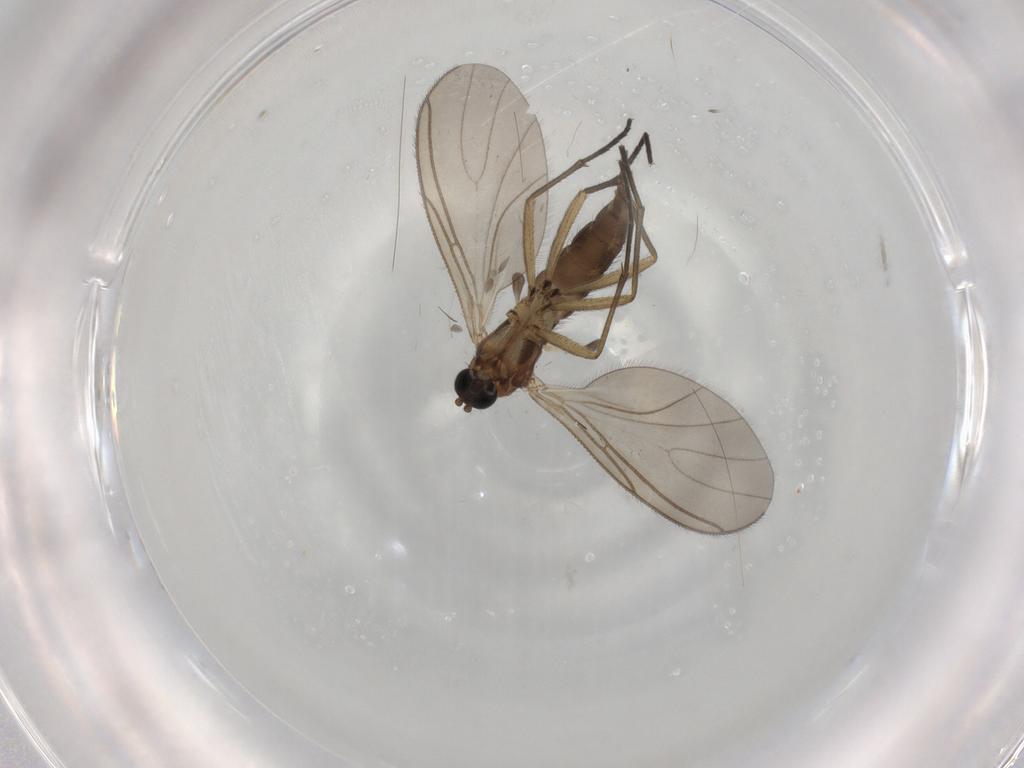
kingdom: Animalia
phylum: Arthropoda
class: Insecta
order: Diptera
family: Sciaridae
